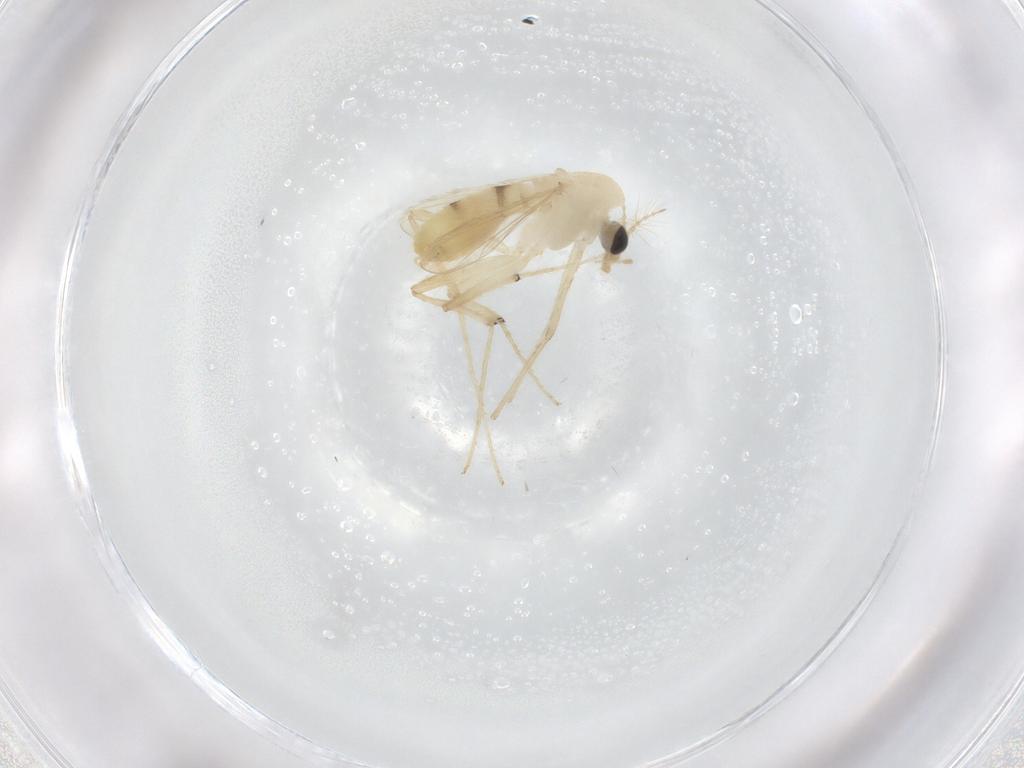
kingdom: Animalia
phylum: Arthropoda
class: Insecta
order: Diptera
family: Chironomidae
